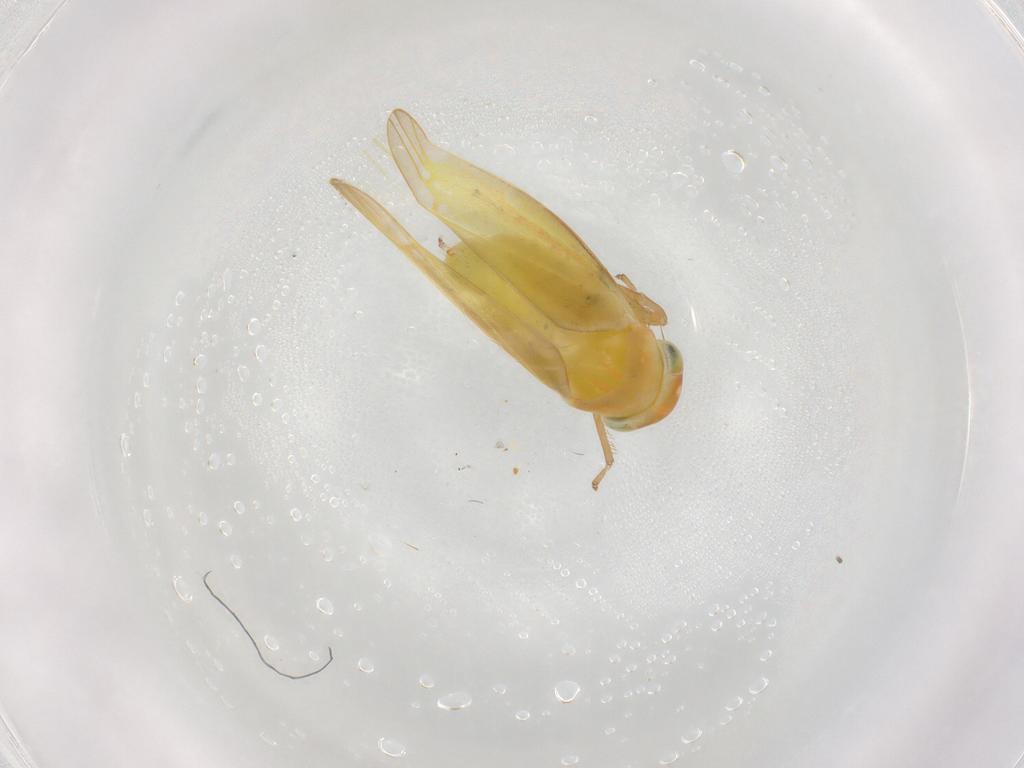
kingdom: Animalia
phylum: Arthropoda
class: Insecta
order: Hemiptera
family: Cicadellidae
